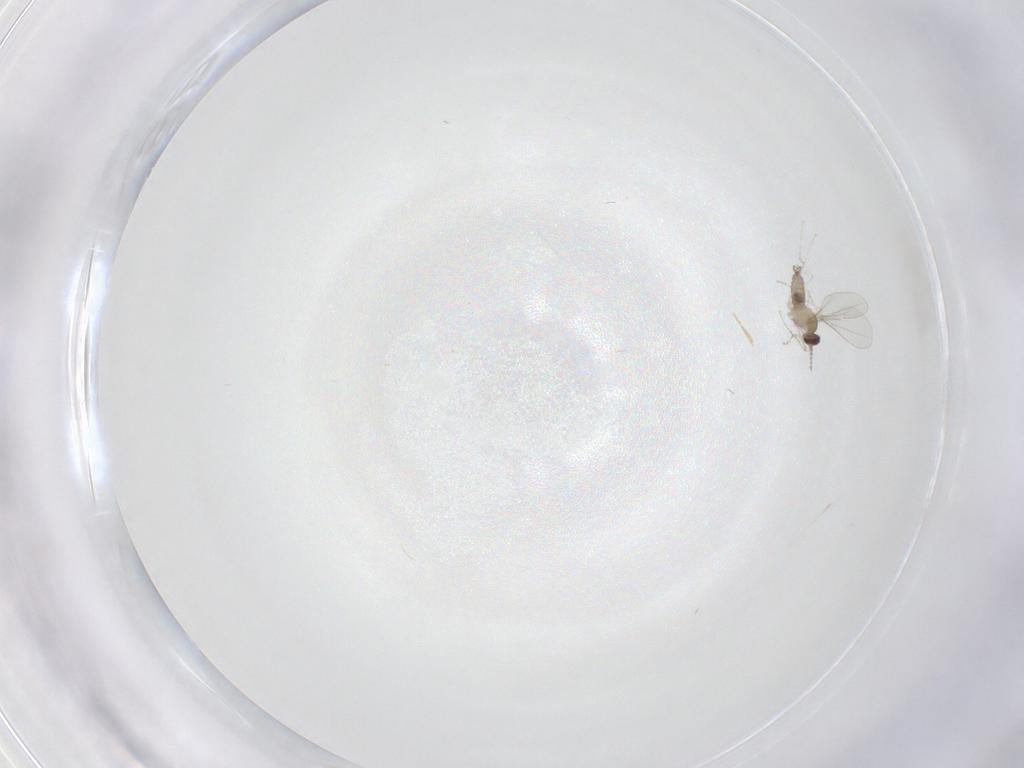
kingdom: Animalia
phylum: Arthropoda
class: Insecta
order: Diptera
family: Cecidomyiidae
